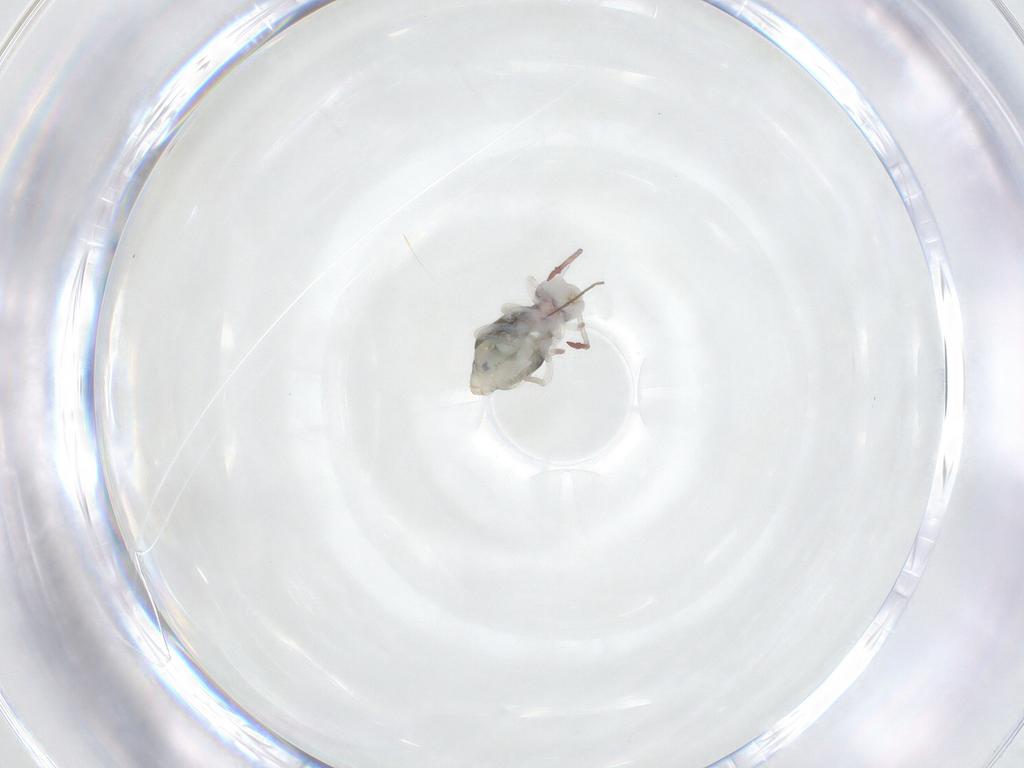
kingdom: Animalia
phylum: Arthropoda
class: Collembola
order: Symphypleona
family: Dicyrtomidae
